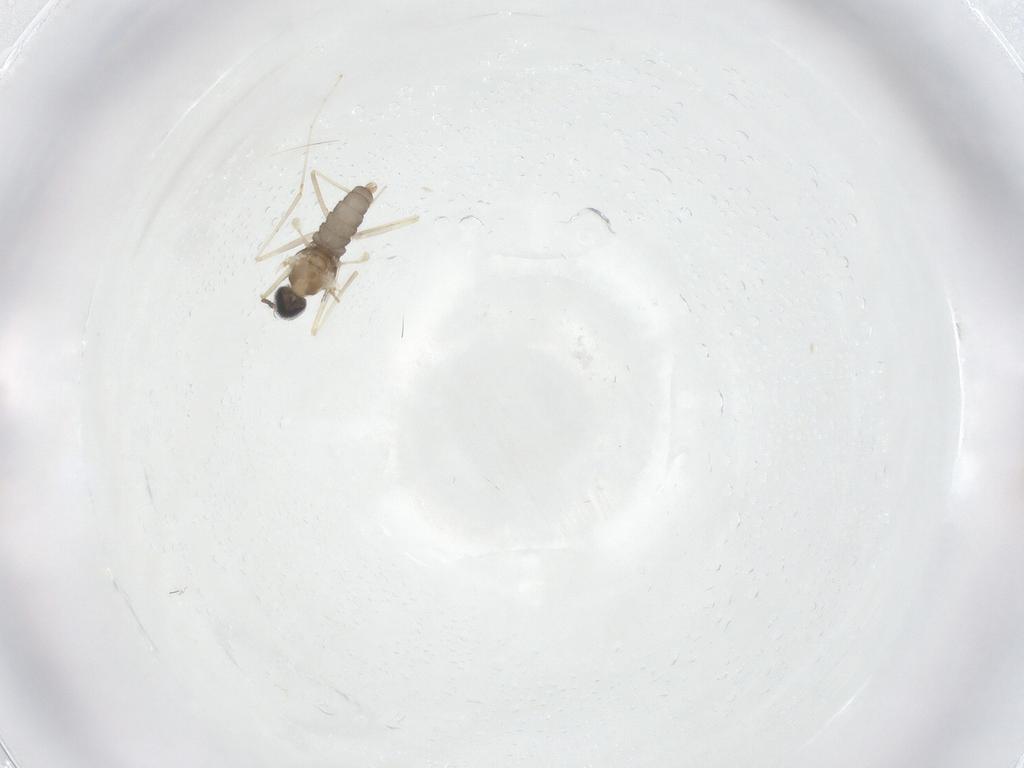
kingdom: Animalia
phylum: Arthropoda
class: Insecta
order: Diptera
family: Cecidomyiidae
